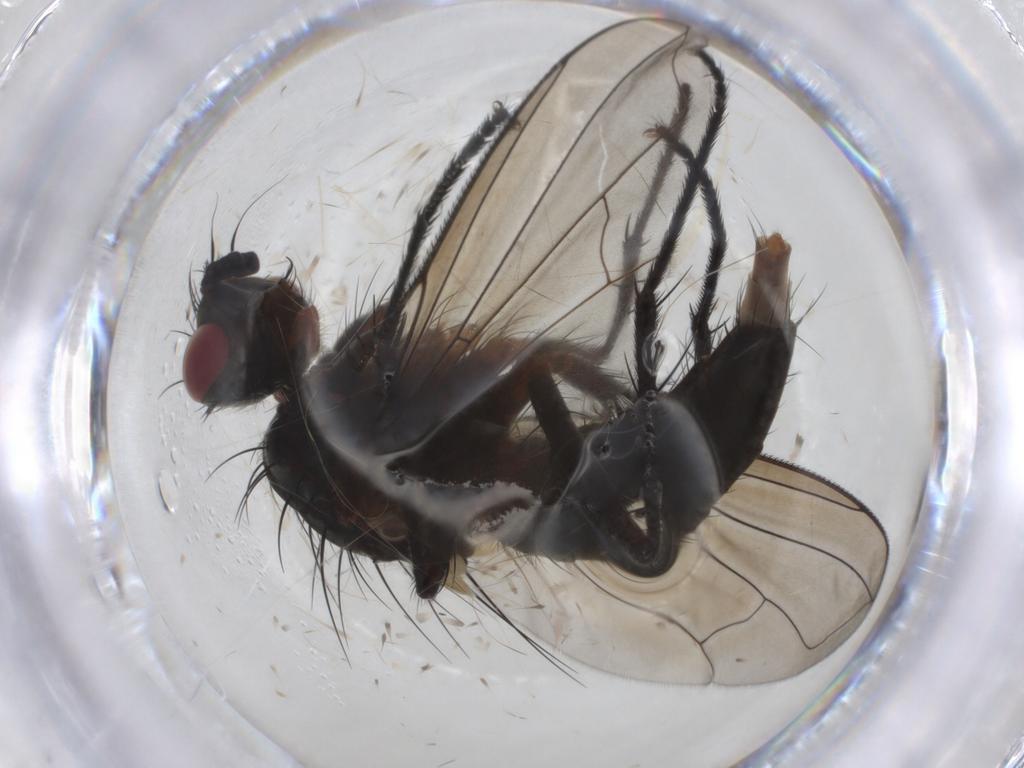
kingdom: Animalia
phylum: Arthropoda
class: Insecta
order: Diptera
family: Tachinidae
